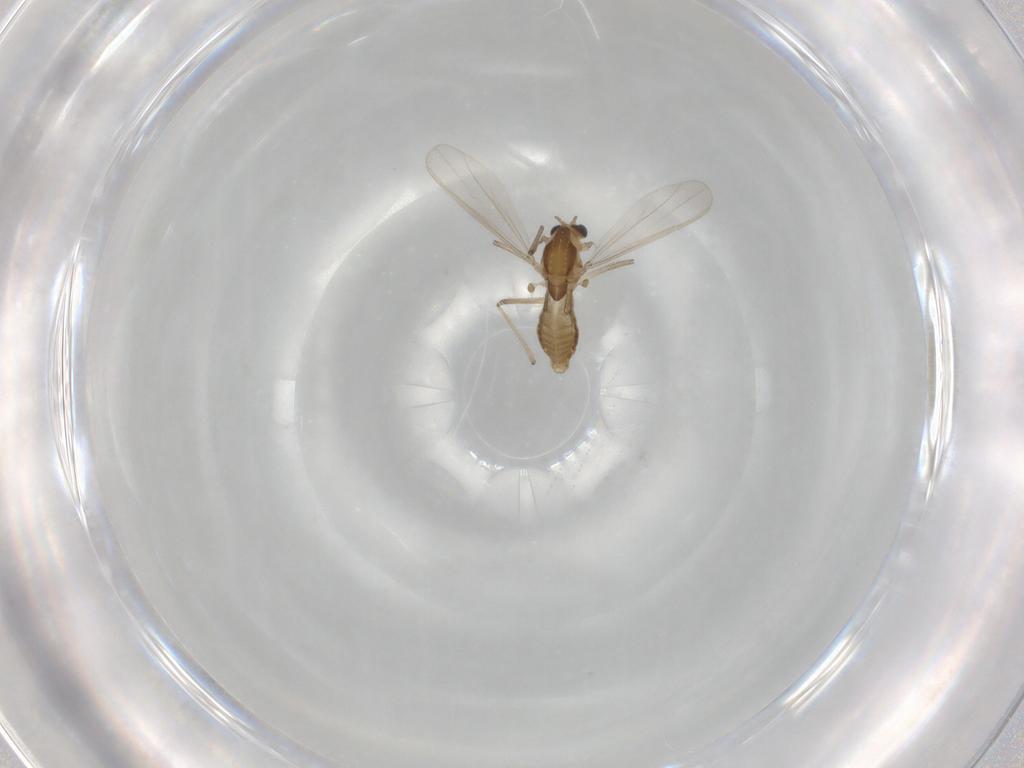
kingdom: Animalia
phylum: Arthropoda
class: Insecta
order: Diptera
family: Chironomidae
